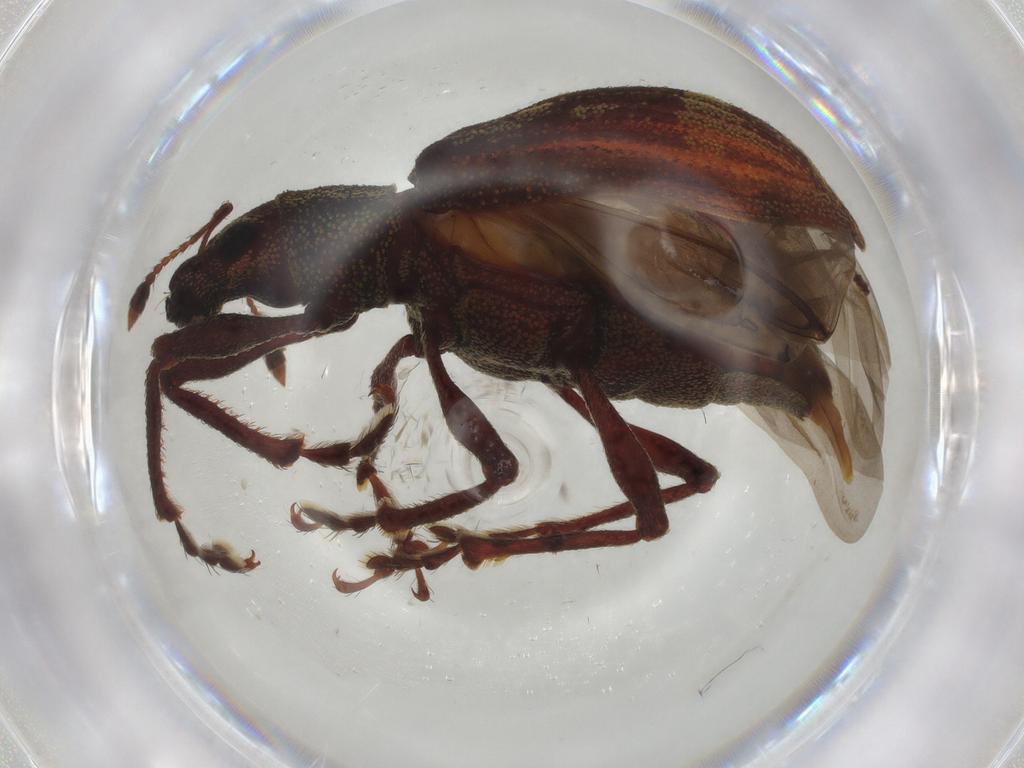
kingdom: Animalia
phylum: Arthropoda
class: Insecta
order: Coleoptera
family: Curculionidae
